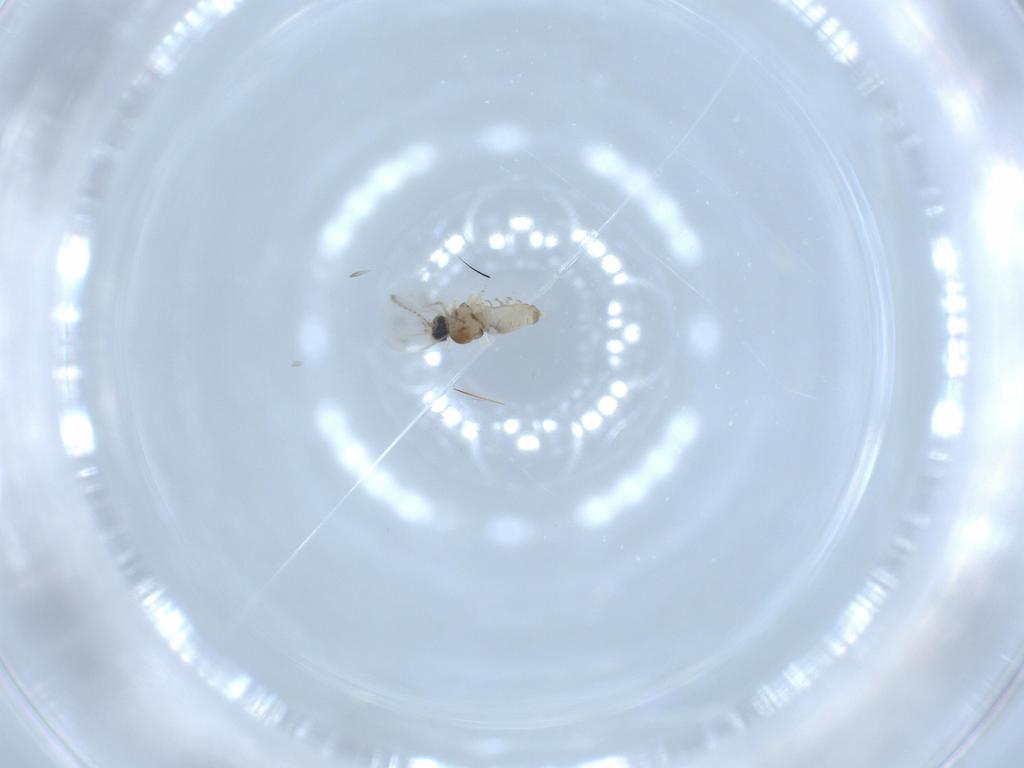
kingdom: Animalia
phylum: Arthropoda
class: Insecta
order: Diptera
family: Cecidomyiidae
